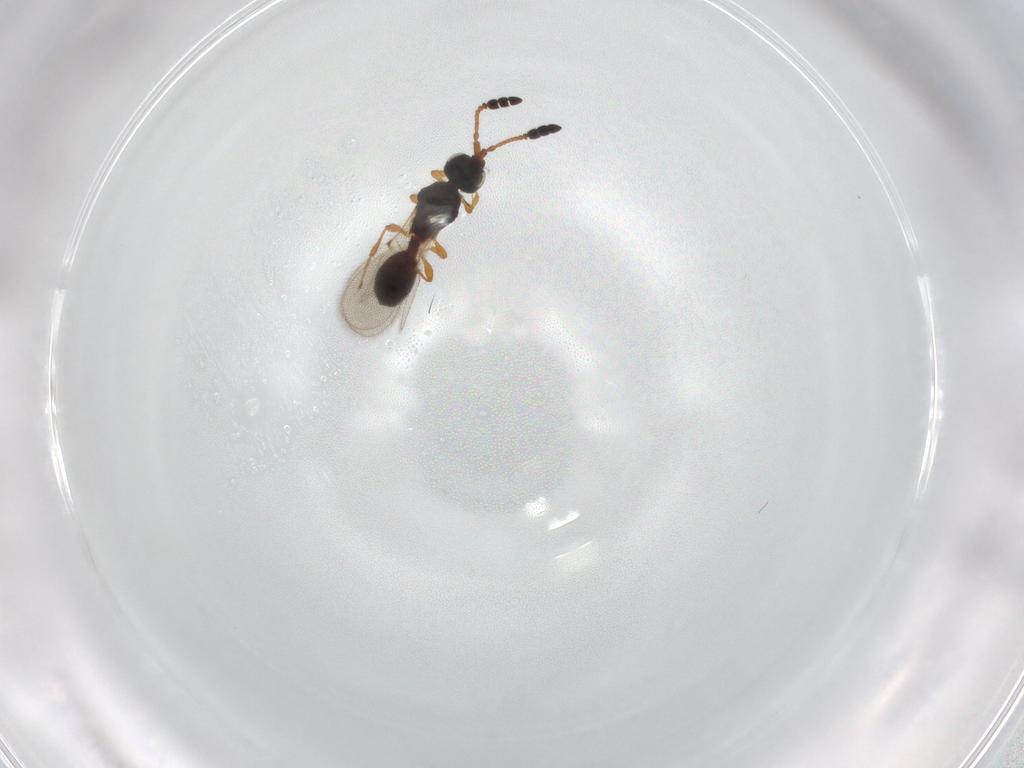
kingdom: Animalia
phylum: Arthropoda
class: Insecta
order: Hymenoptera
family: Diapriidae
